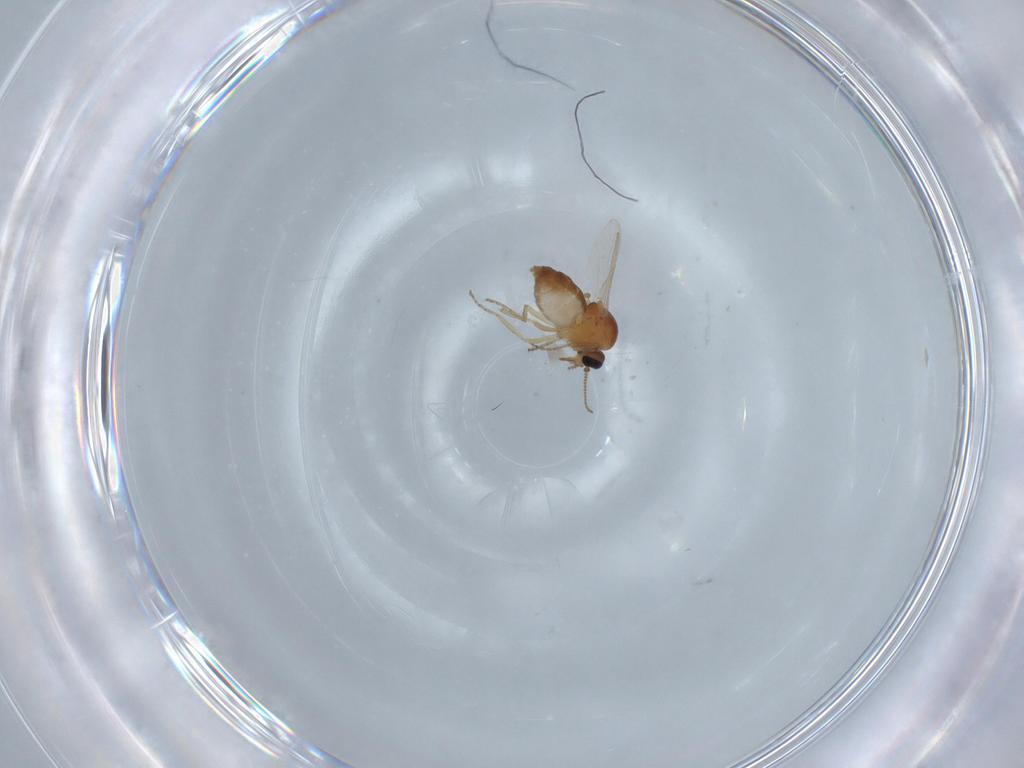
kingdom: Animalia
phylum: Arthropoda
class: Insecta
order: Diptera
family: Ceratopogonidae
